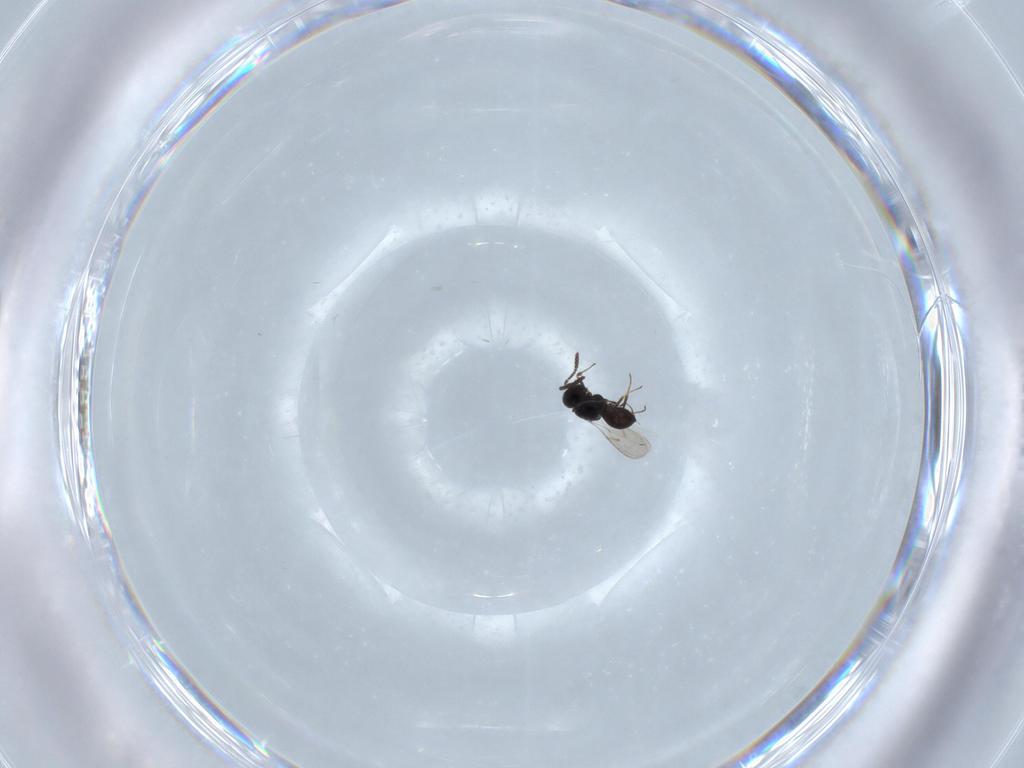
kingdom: Animalia
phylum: Arthropoda
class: Insecta
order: Hymenoptera
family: Scelionidae
